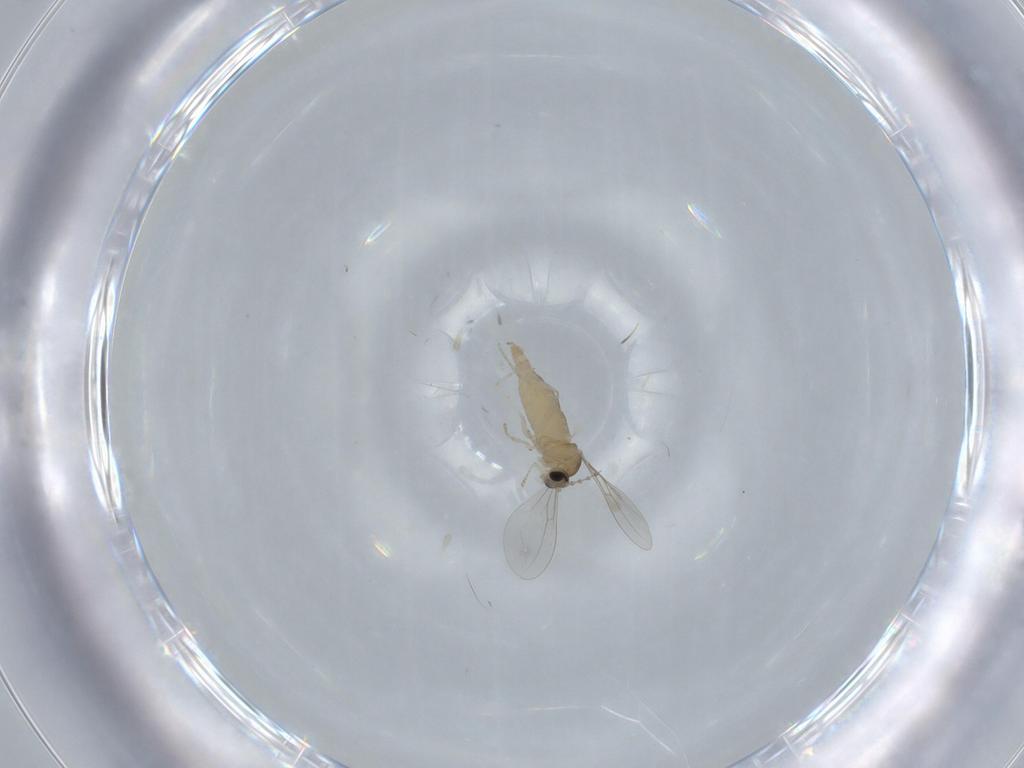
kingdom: Animalia
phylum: Arthropoda
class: Insecta
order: Diptera
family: Cecidomyiidae
